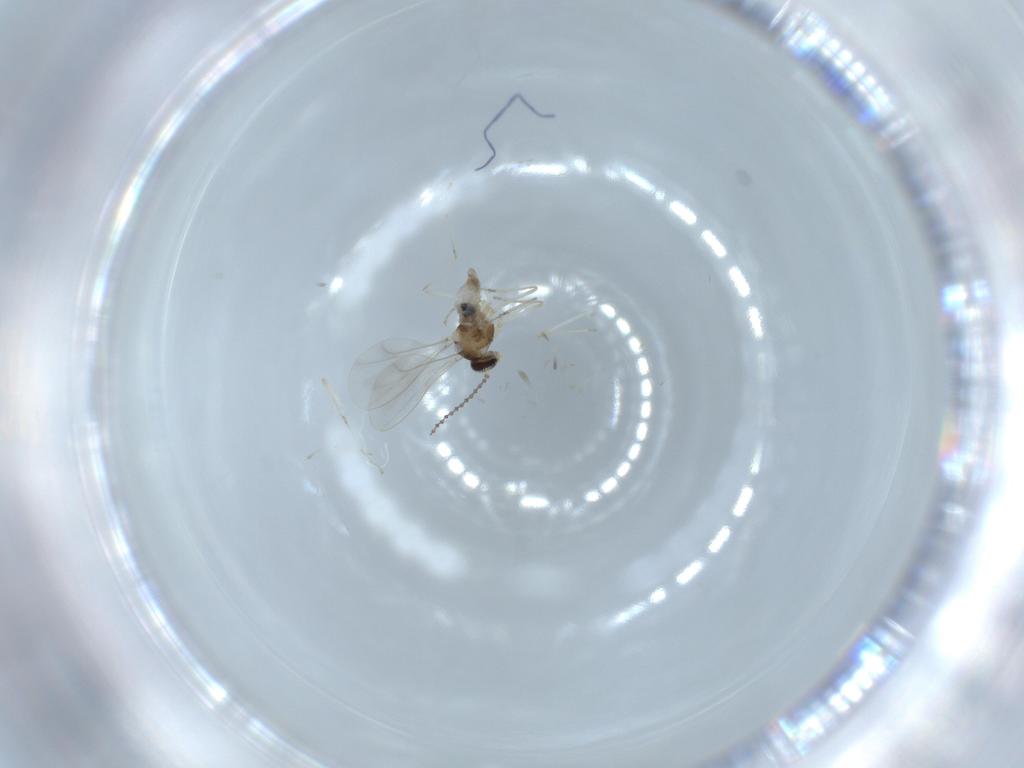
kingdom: Animalia
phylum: Arthropoda
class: Insecta
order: Diptera
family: Cecidomyiidae
